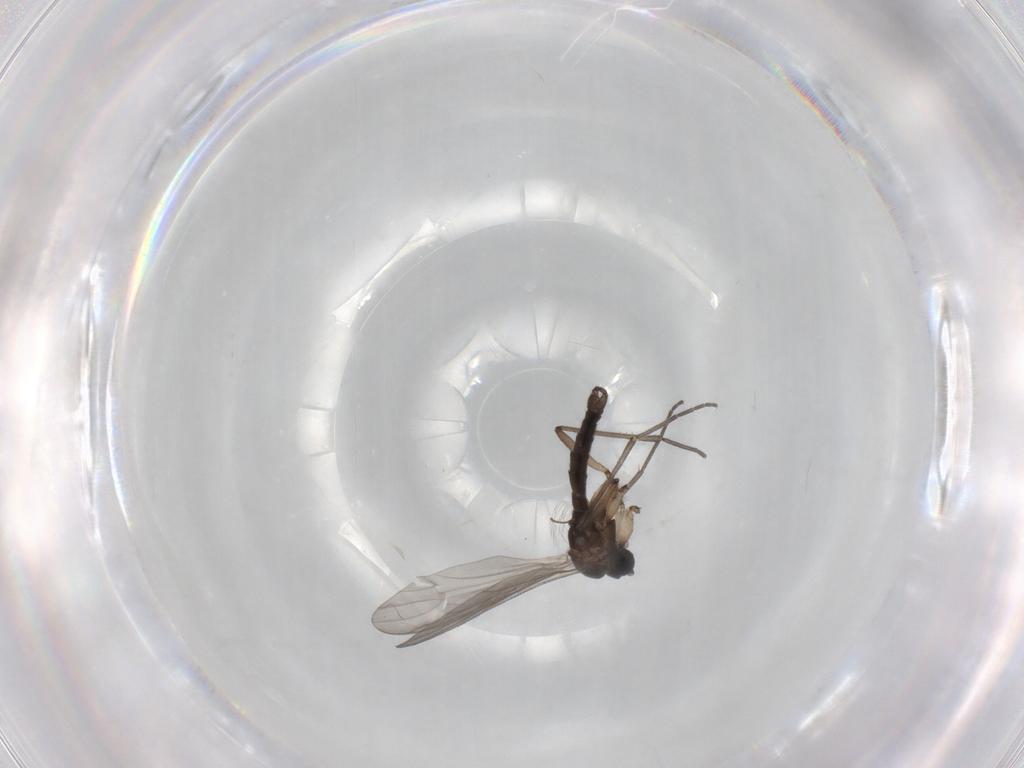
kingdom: Animalia
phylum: Arthropoda
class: Insecta
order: Diptera
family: Sciaridae
